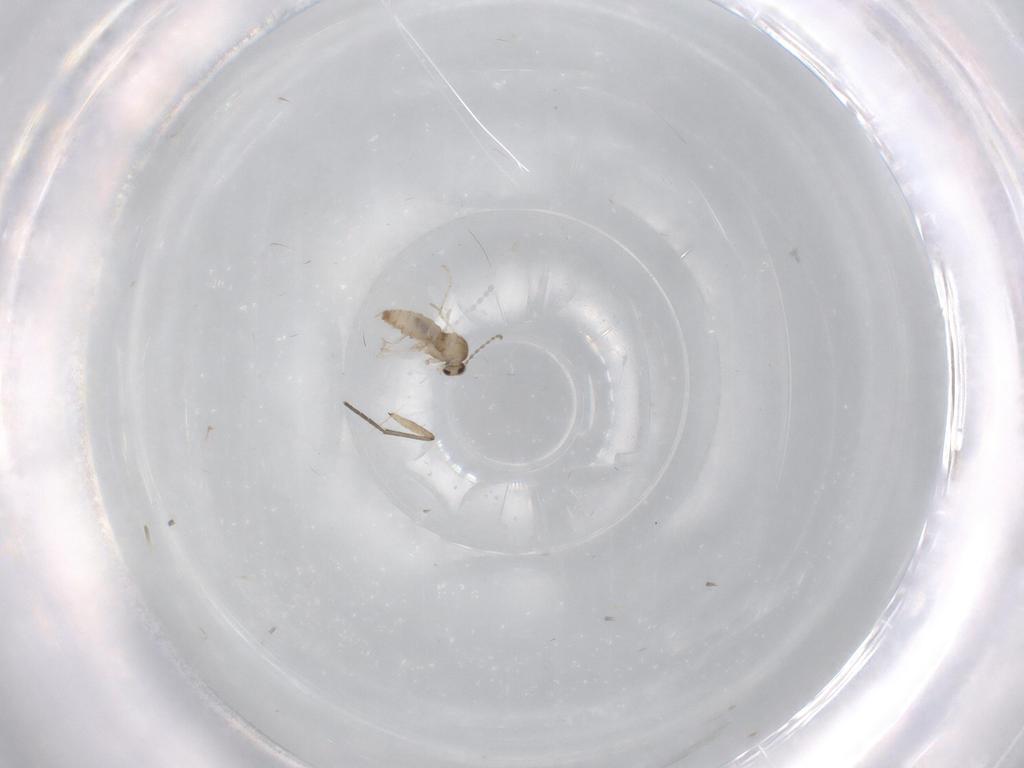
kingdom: Animalia
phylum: Arthropoda
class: Insecta
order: Diptera
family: Cecidomyiidae
